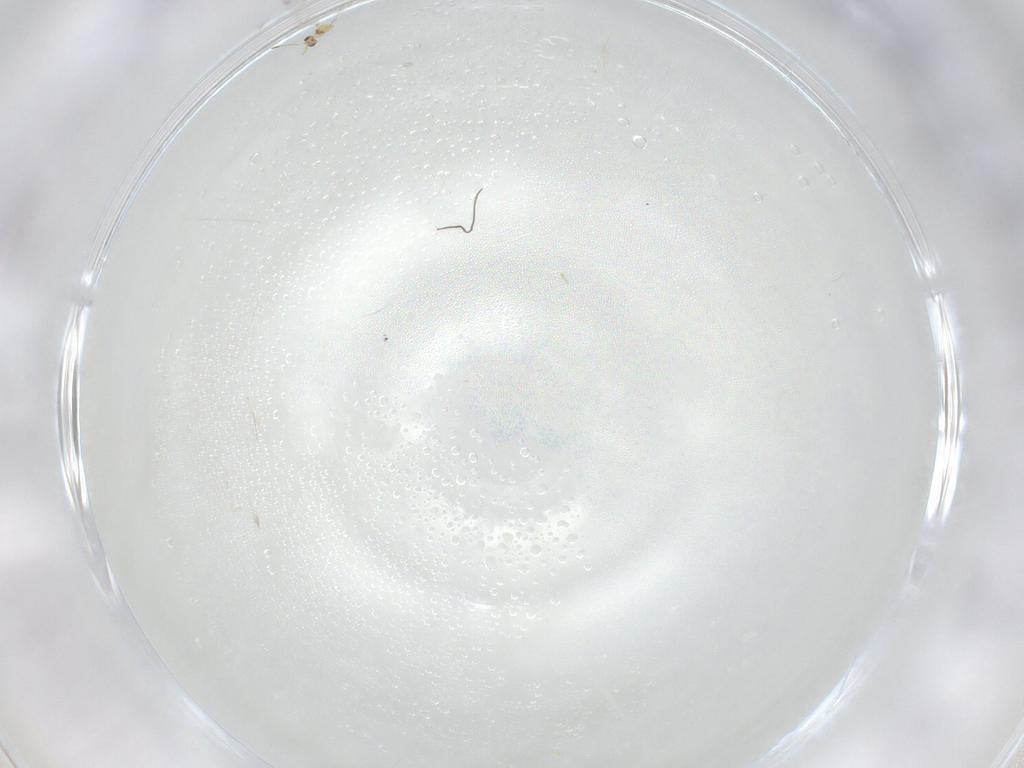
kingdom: Animalia
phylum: Arthropoda
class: Insecta
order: Hymenoptera
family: Mymaridae
